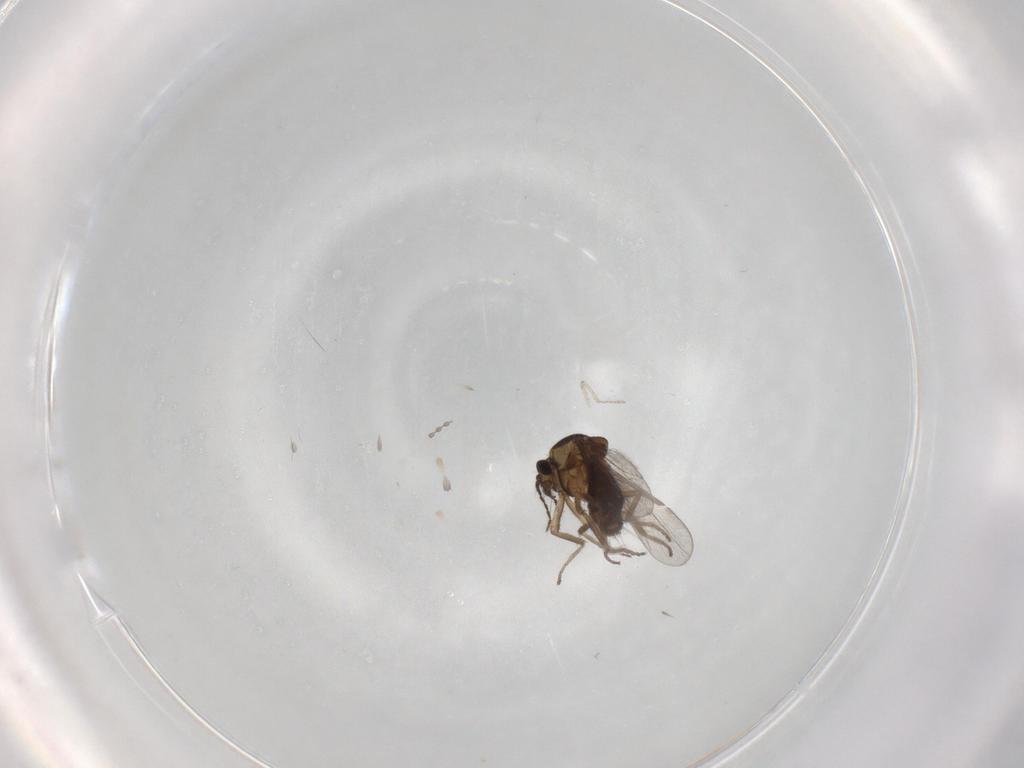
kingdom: Animalia
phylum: Arthropoda
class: Insecta
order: Diptera
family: Ceratopogonidae
